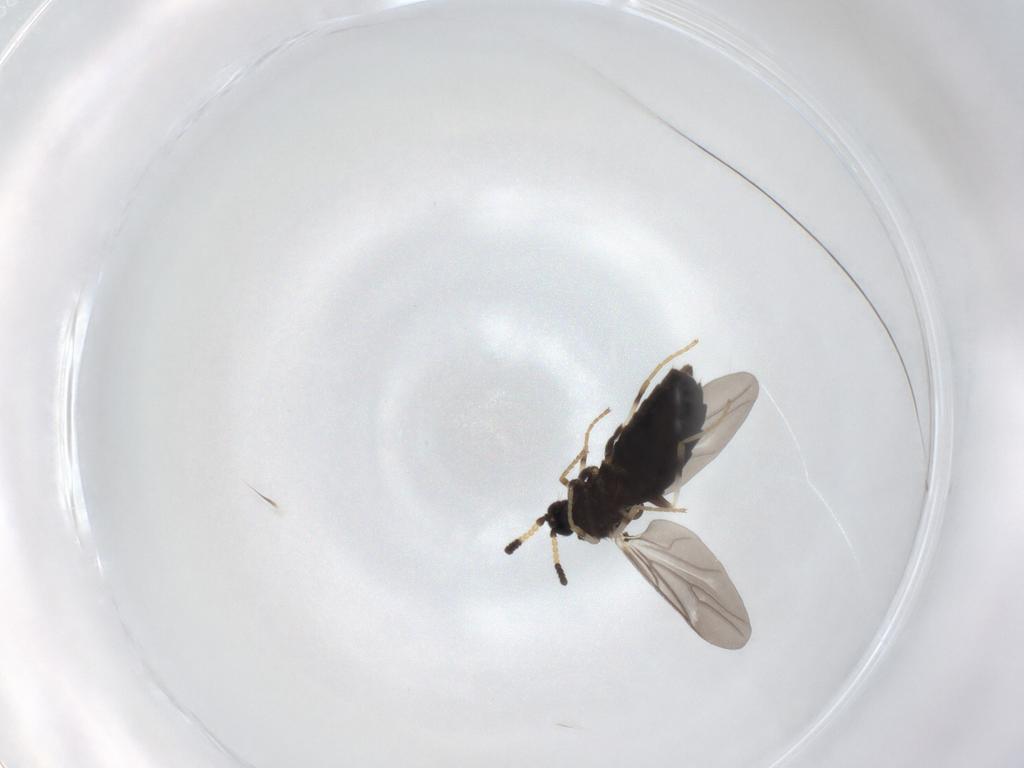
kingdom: Animalia
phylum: Arthropoda
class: Insecta
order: Diptera
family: Scatopsidae
